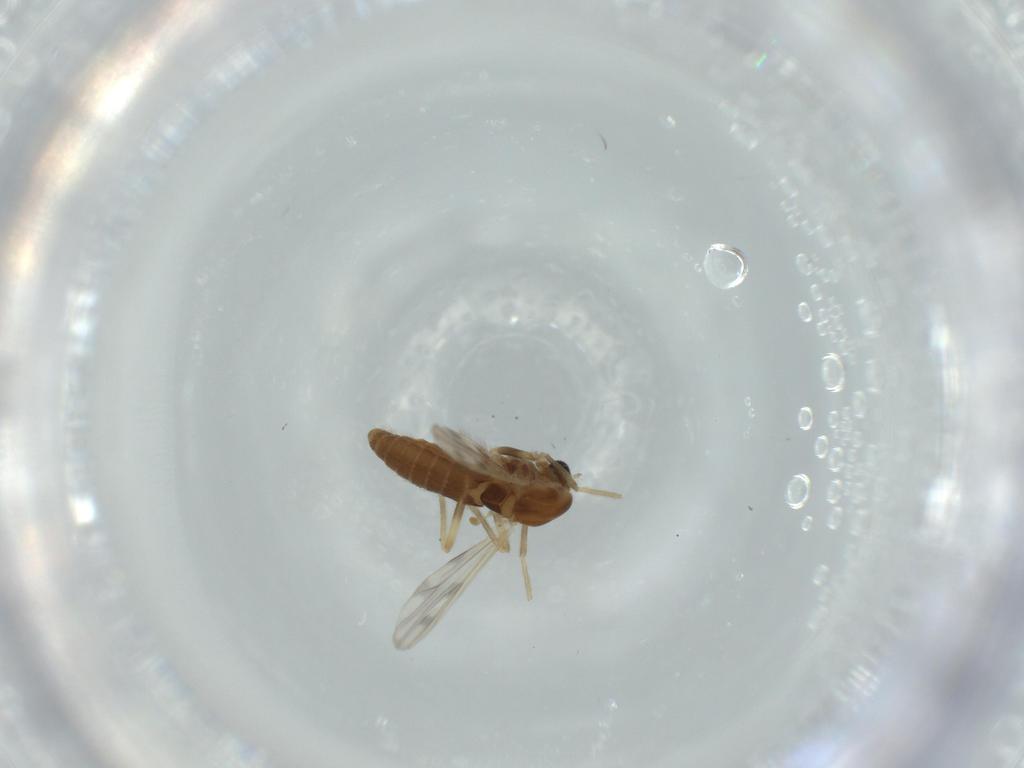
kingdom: Animalia
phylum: Arthropoda
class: Insecta
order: Diptera
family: Chironomidae
